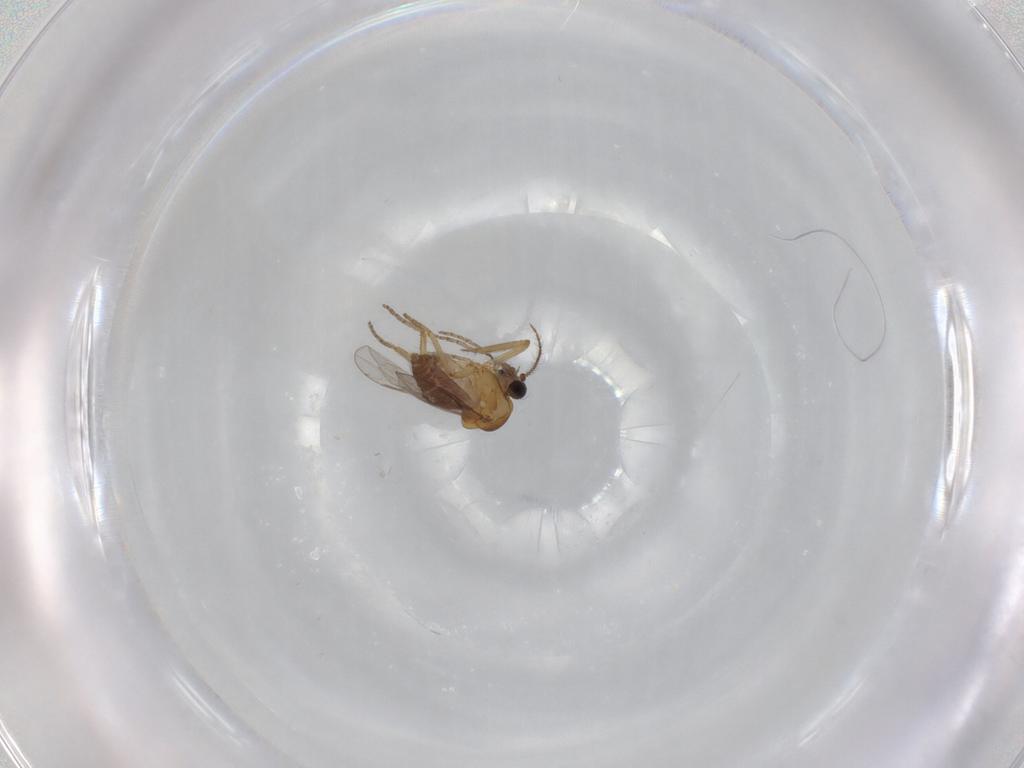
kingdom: Animalia
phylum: Arthropoda
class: Insecta
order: Diptera
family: Ceratopogonidae
